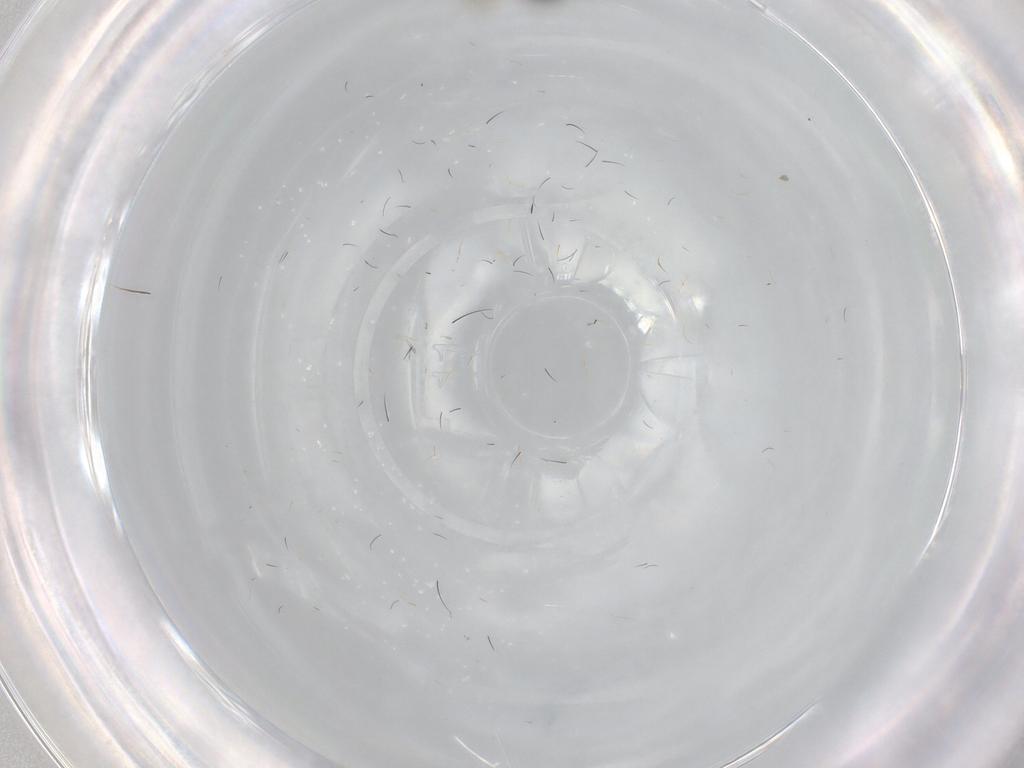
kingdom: Animalia
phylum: Arthropoda
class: Insecta
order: Diptera
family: Dolichopodidae
